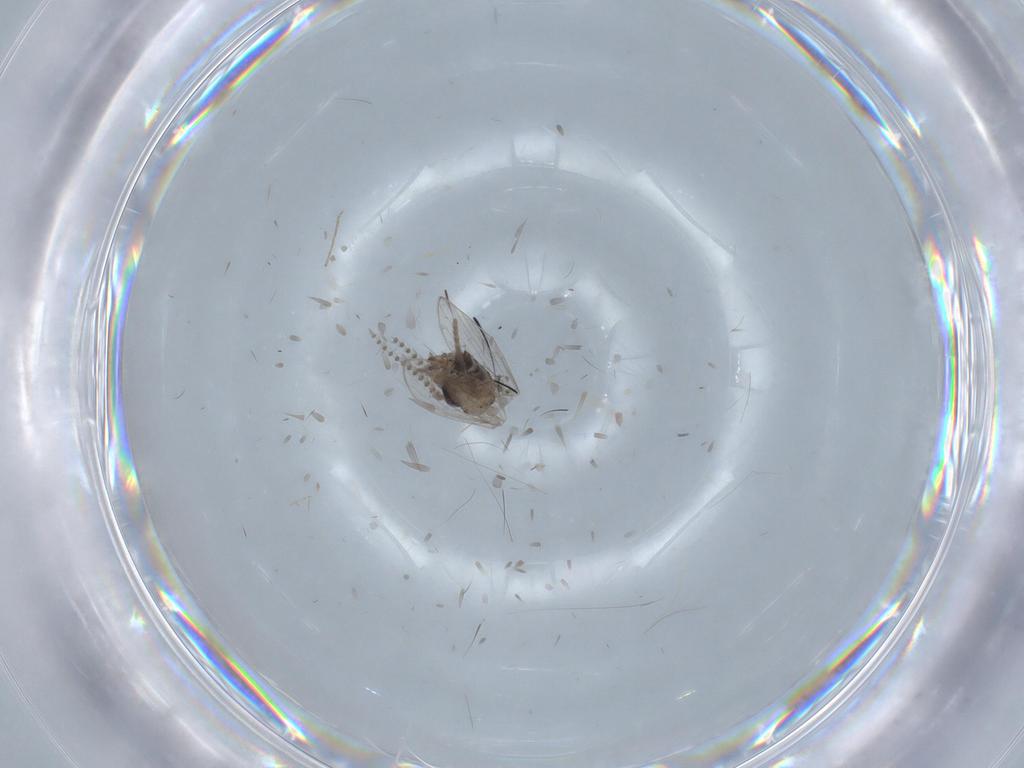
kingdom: Animalia
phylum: Arthropoda
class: Insecta
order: Diptera
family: Psychodidae
